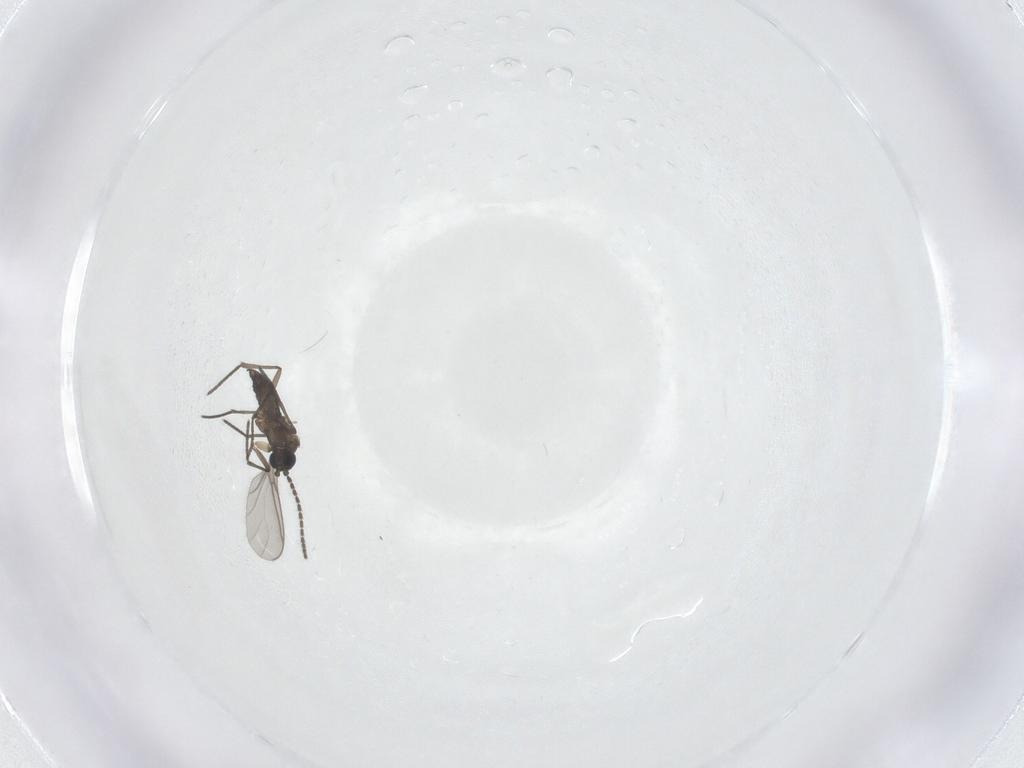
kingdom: Animalia
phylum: Arthropoda
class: Insecta
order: Diptera
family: Sciaridae
